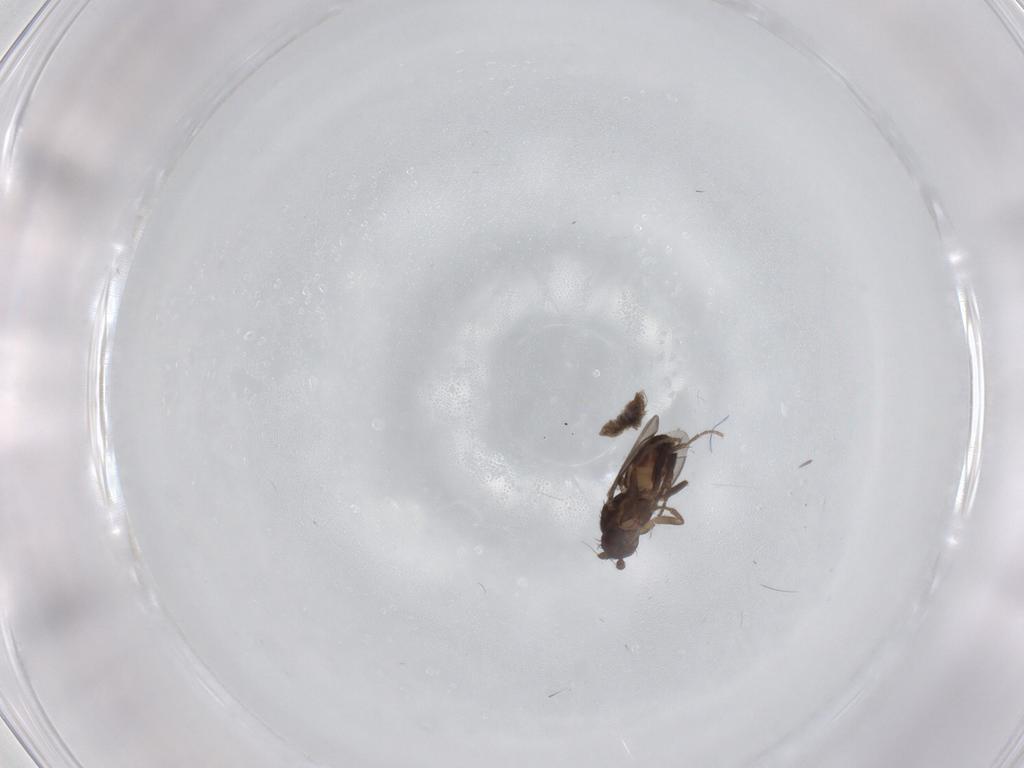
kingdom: Animalia
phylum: Arthropoda
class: Insecta
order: Diptera
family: Sphaeroceridae
